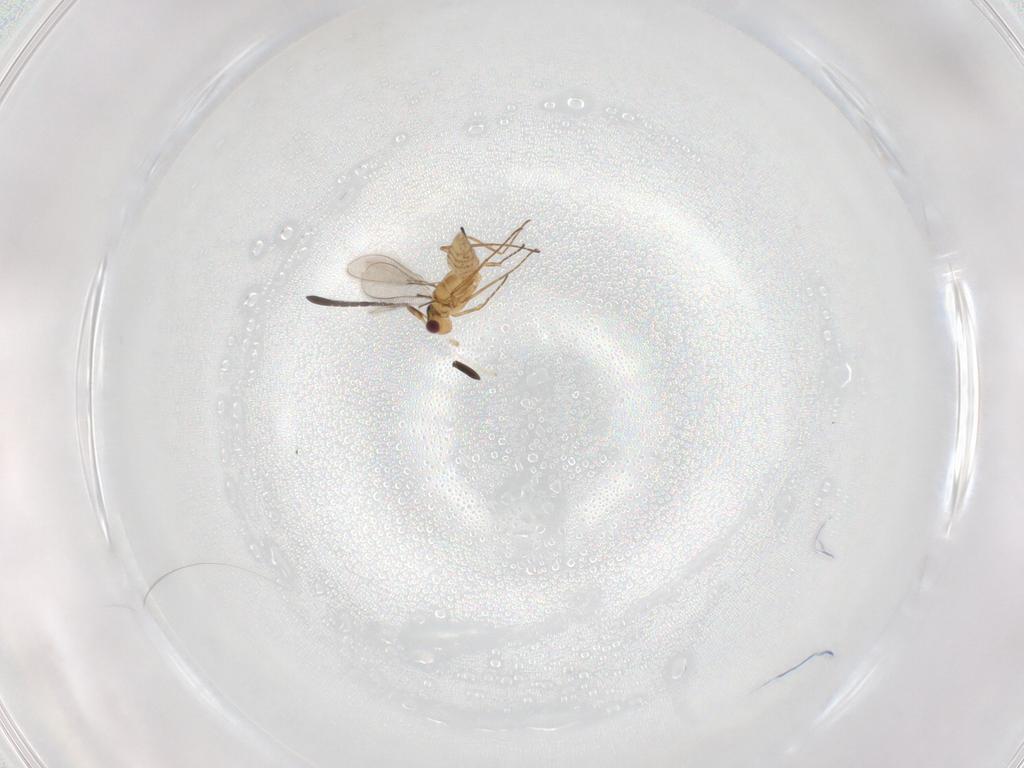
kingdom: Animalia
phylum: Arthropoda
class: Insecta
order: Hymenoptera
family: Mymaridae
